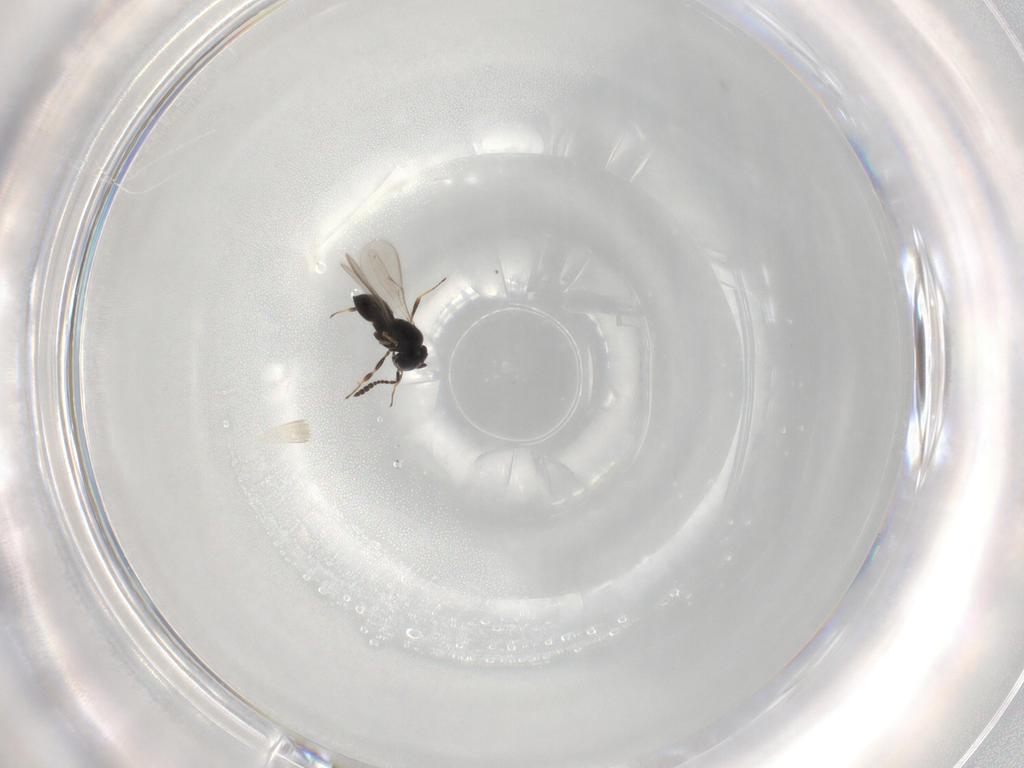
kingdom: Animalia
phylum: Arthropoda
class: Insecta
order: Hymenoptera
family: Scelionidae
